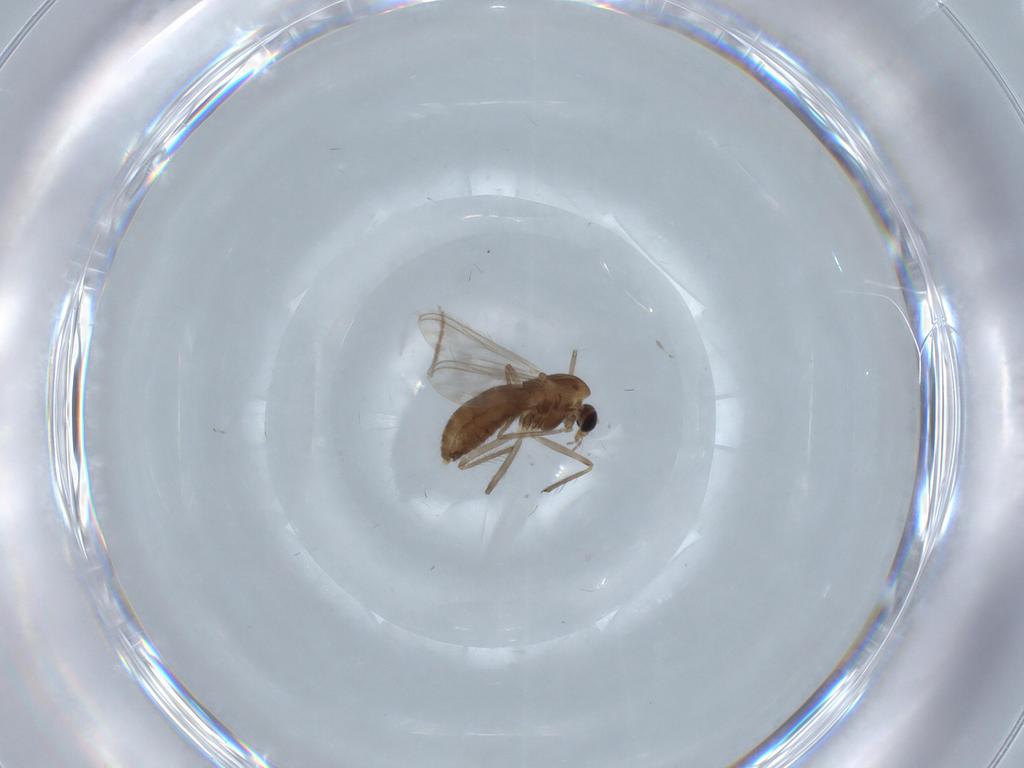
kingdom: Animalia
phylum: Arthropoda
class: Insecta
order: Diptera
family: Chironomidae
